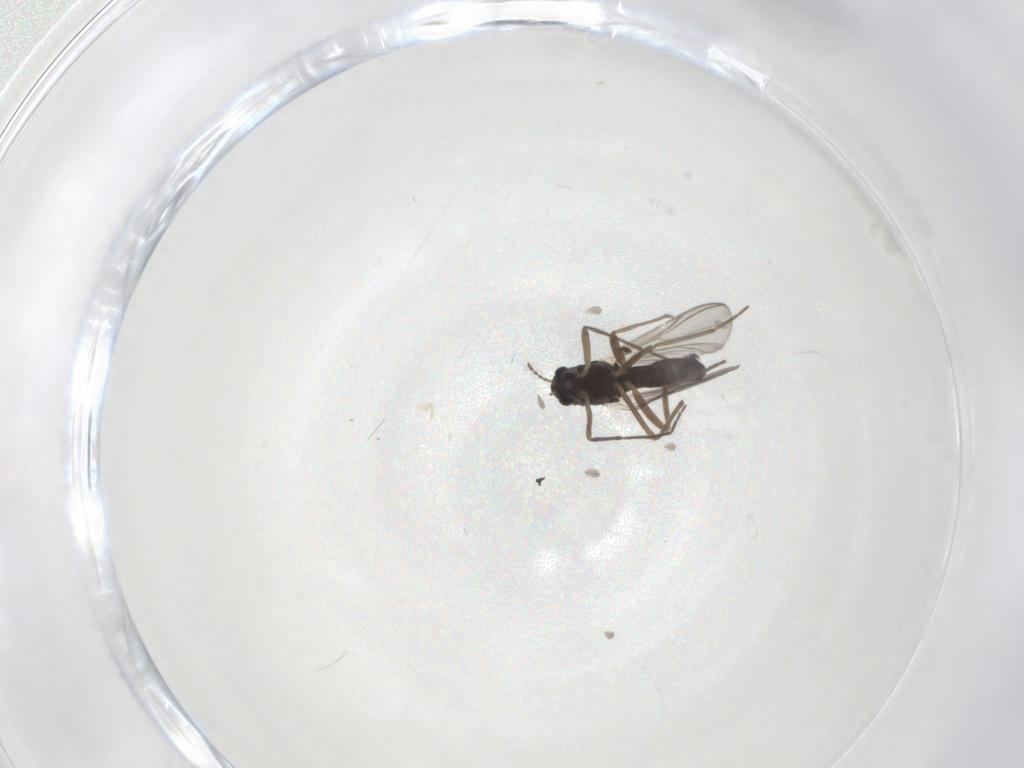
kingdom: Animalia
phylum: Arthropoda
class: Insecta
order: Diptera
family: Chironomidae
